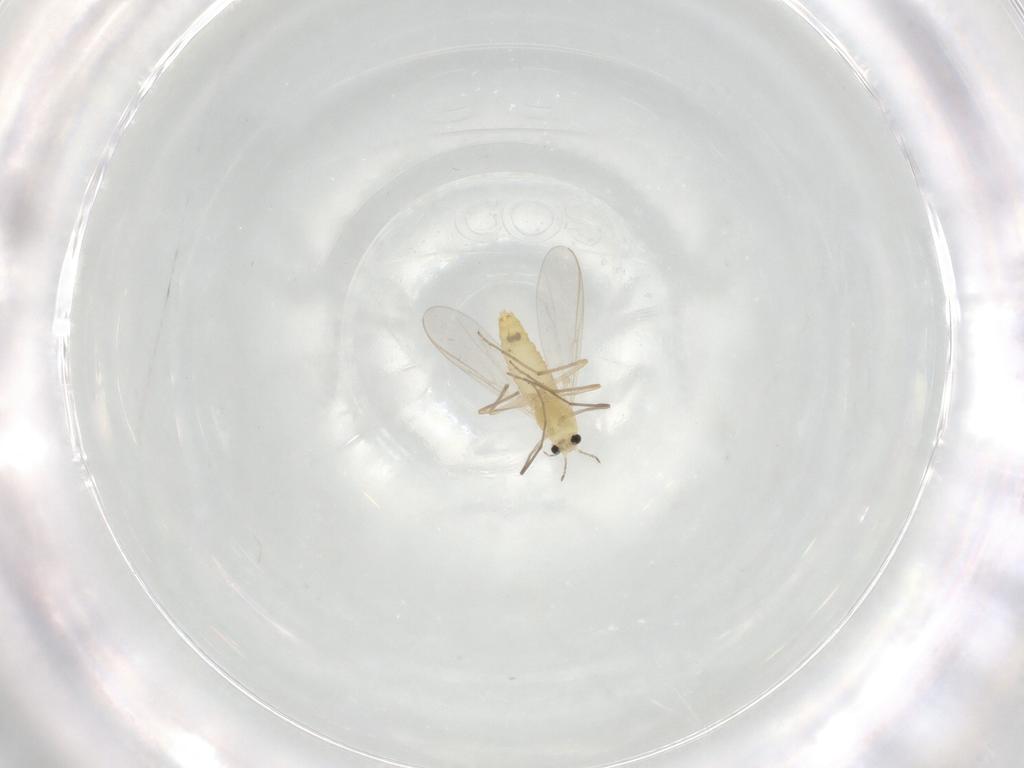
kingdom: Animalia
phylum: Arthropoda
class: Insecta
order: Diptera
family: Chironomidae
